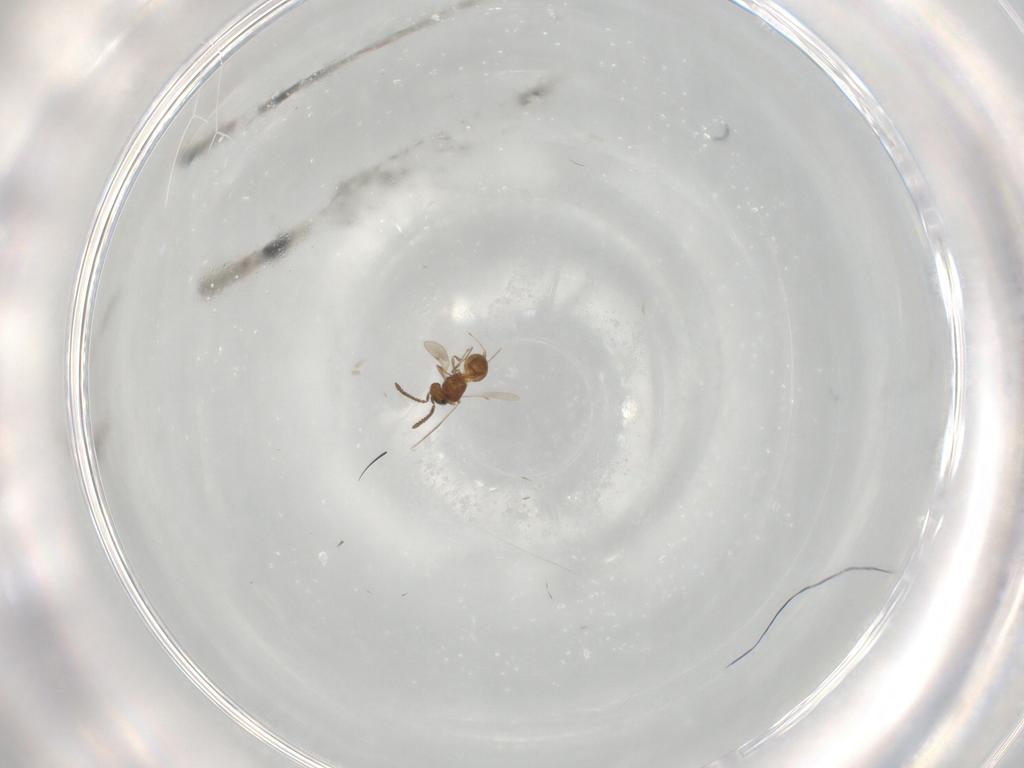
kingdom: Animalia
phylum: Arthropoda
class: Insecta
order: Hymenoptera
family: Scelionidae
